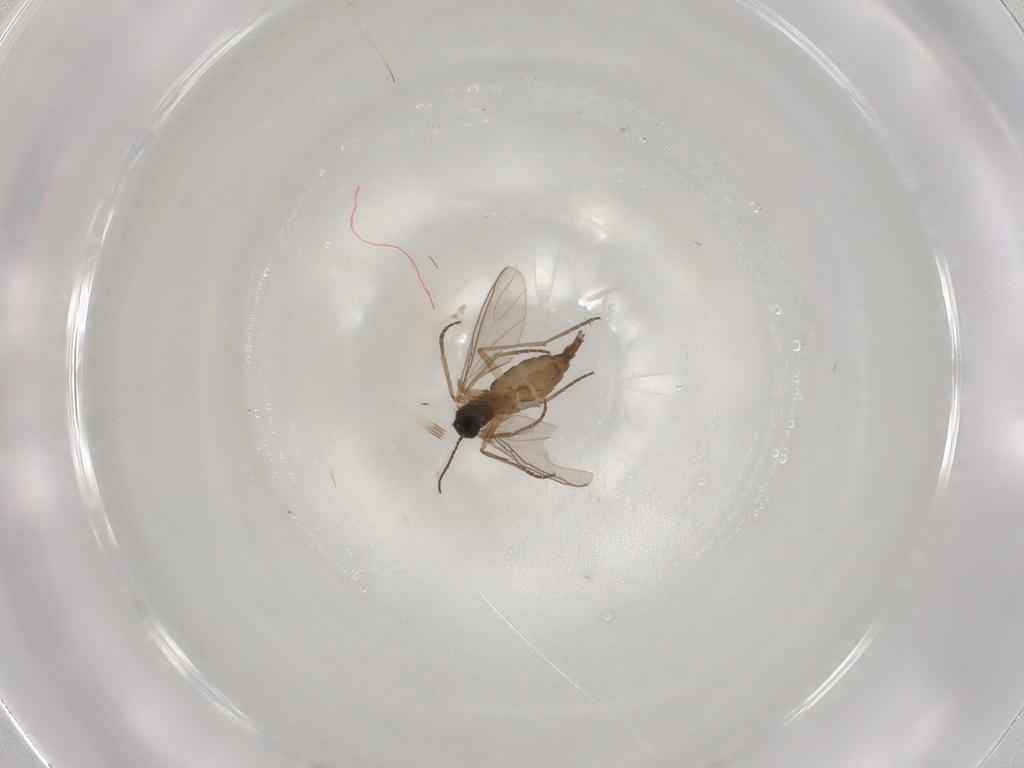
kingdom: Animalia
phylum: Arthropoda
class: Insecta
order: Diptera
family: Sciaridae
